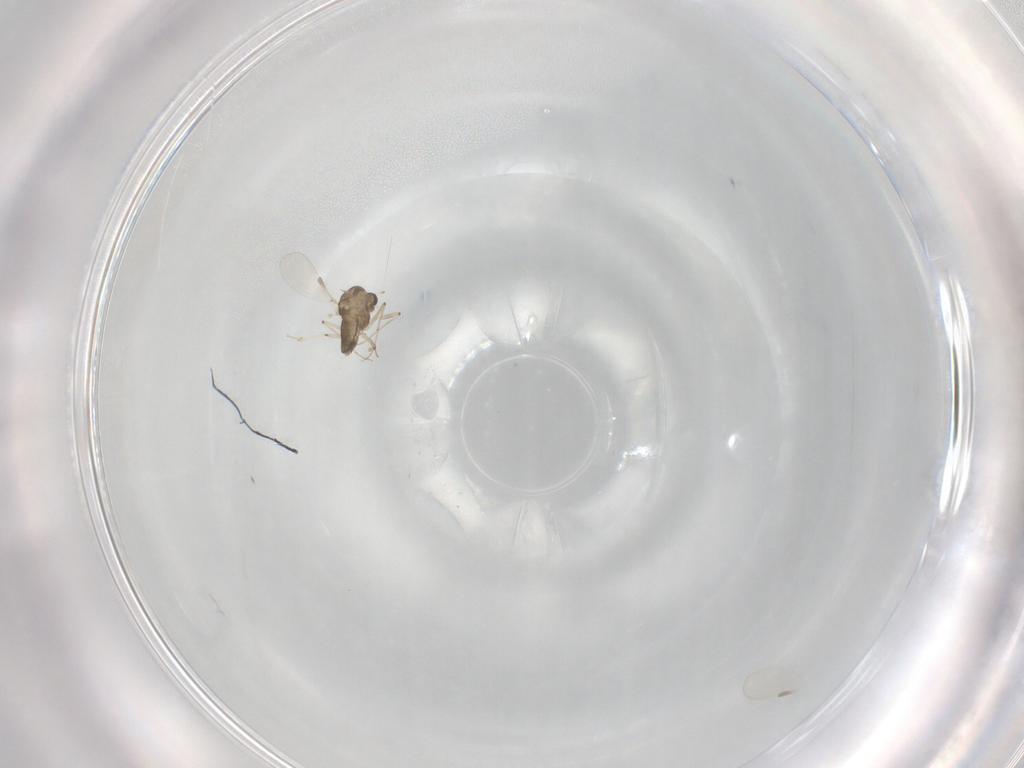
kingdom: Animalia
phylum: Arthropoda
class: Insecta
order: Diptera
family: Chironomidae
